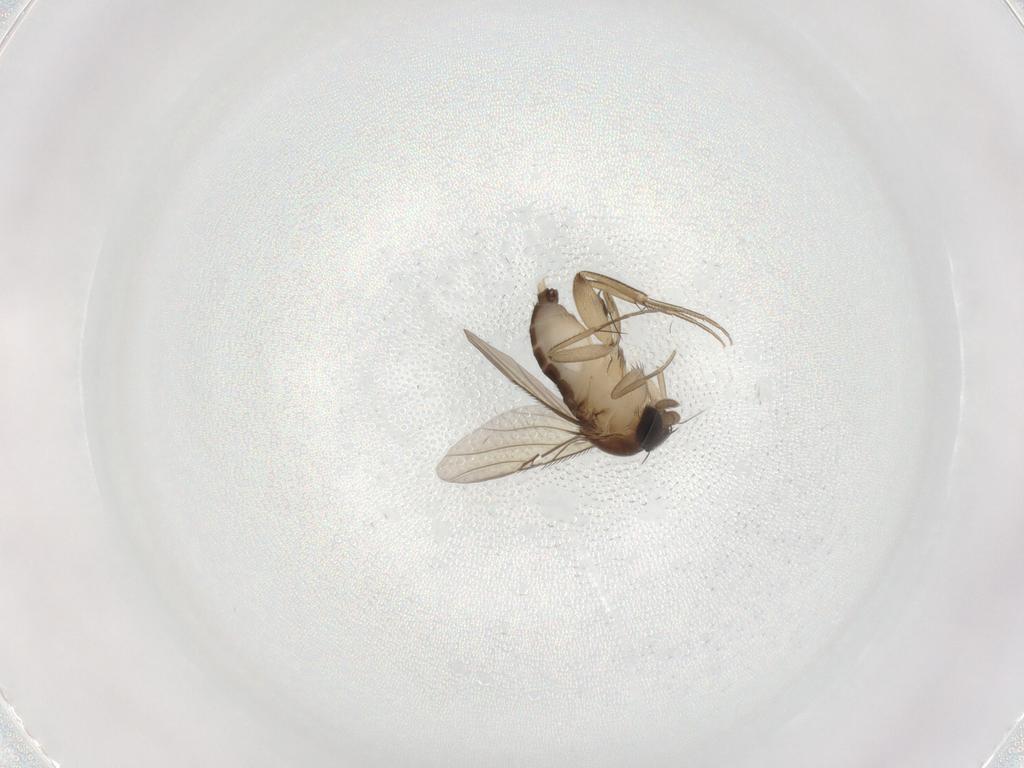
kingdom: Animalia
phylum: Arthropoda
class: Insecta
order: Diptera
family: Phoridae
